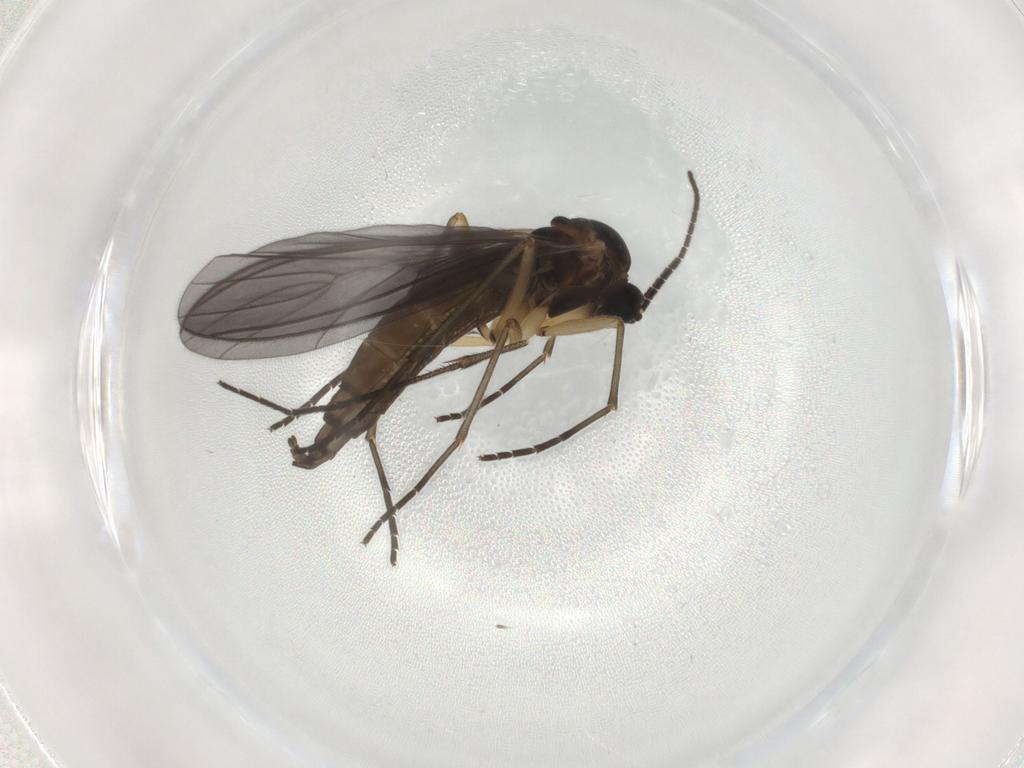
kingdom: Animalia
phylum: Arthropoda
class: Insecta
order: Diptera
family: Sciaridae
